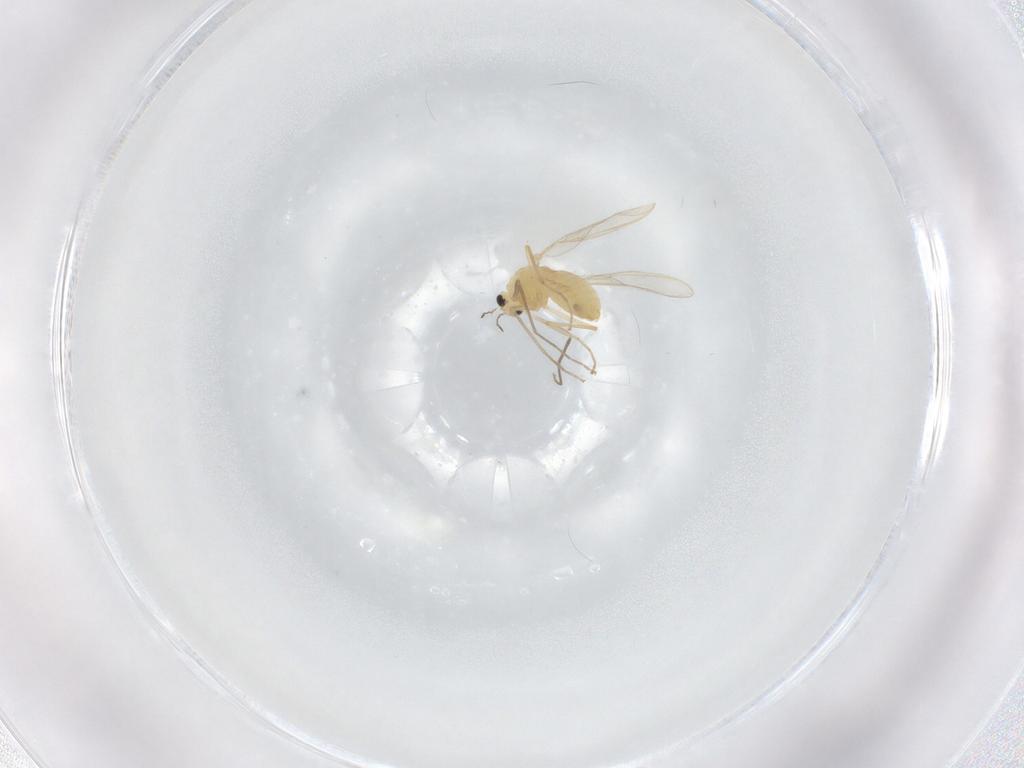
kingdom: Animalia
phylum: Arthropoda
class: Insecta
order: Diptera
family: Chironomidae
